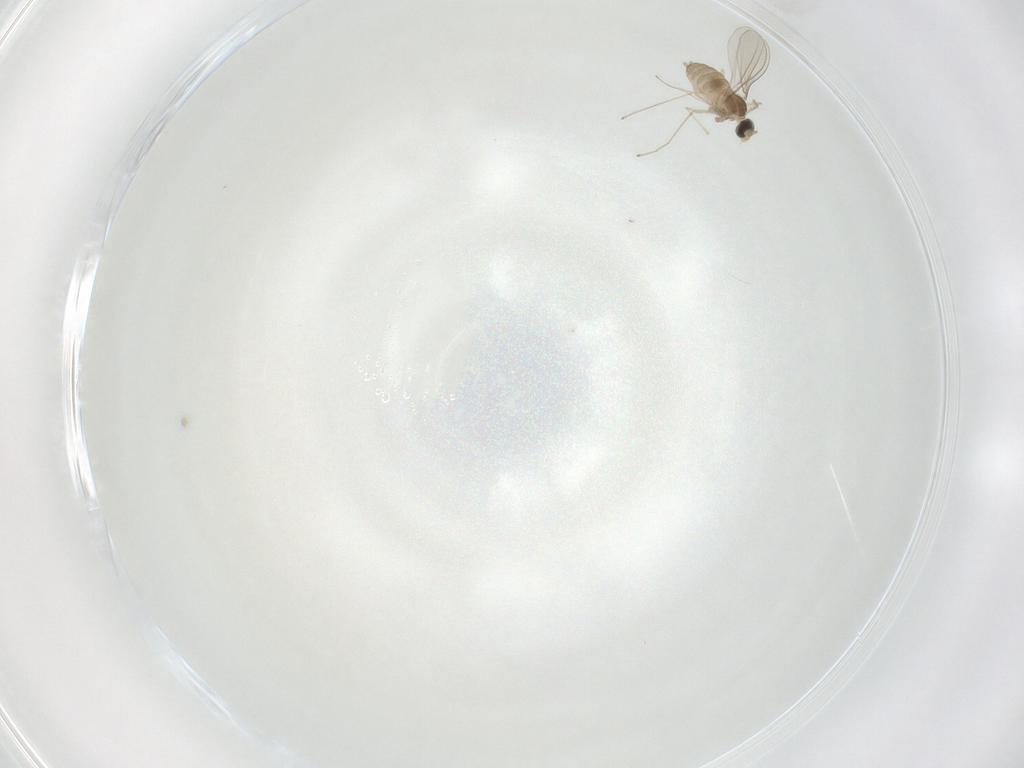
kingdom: Animalia
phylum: Arthropoda
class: Insecta
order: Diptera
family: Cecidomyiidae
